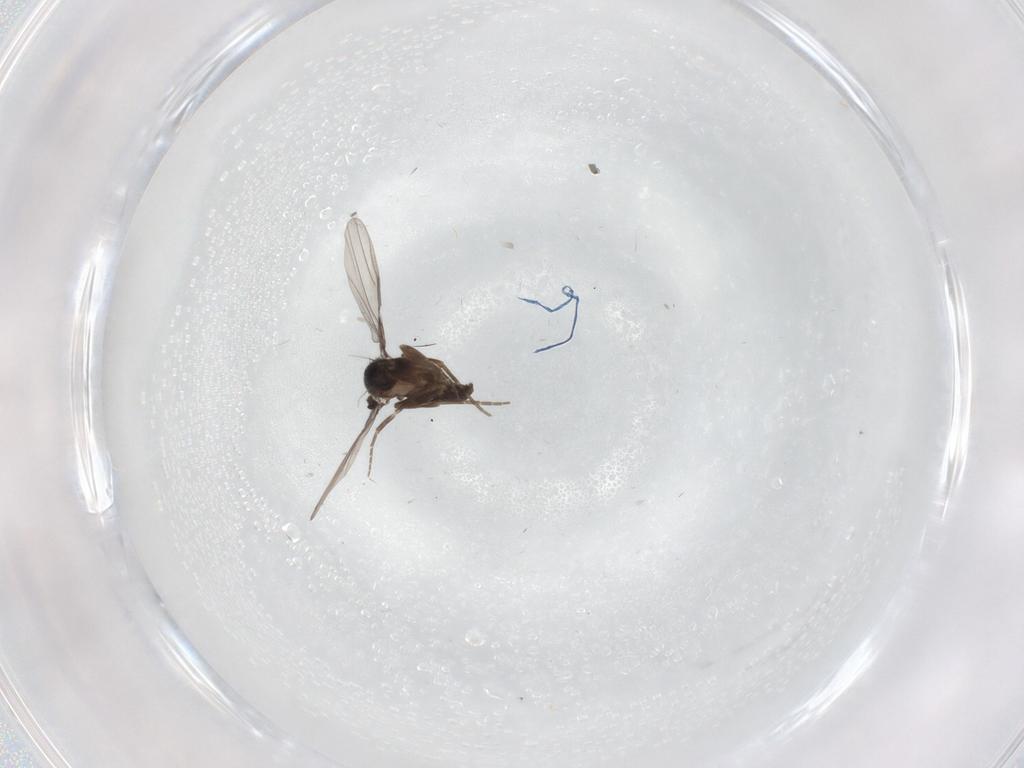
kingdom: Animalia
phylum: Arthropoda
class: Insecta
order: Diptera
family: Phoridae
